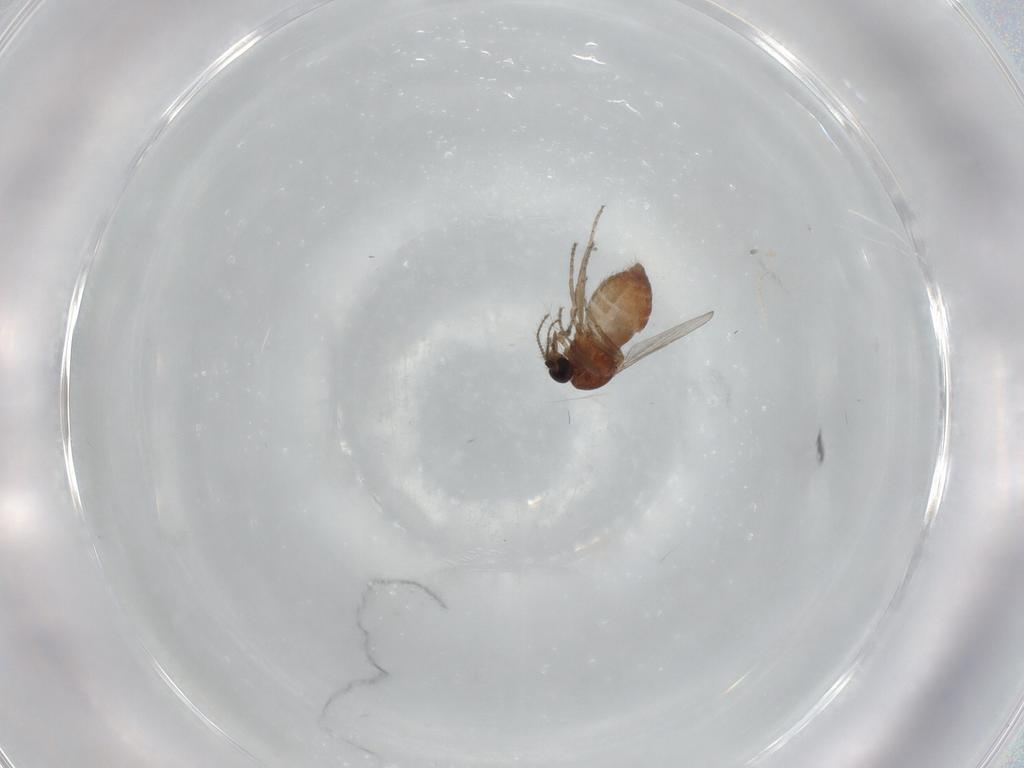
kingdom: Animalia
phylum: Arthropoda
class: Insecta
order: Diptera
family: Ceratopogonidae
